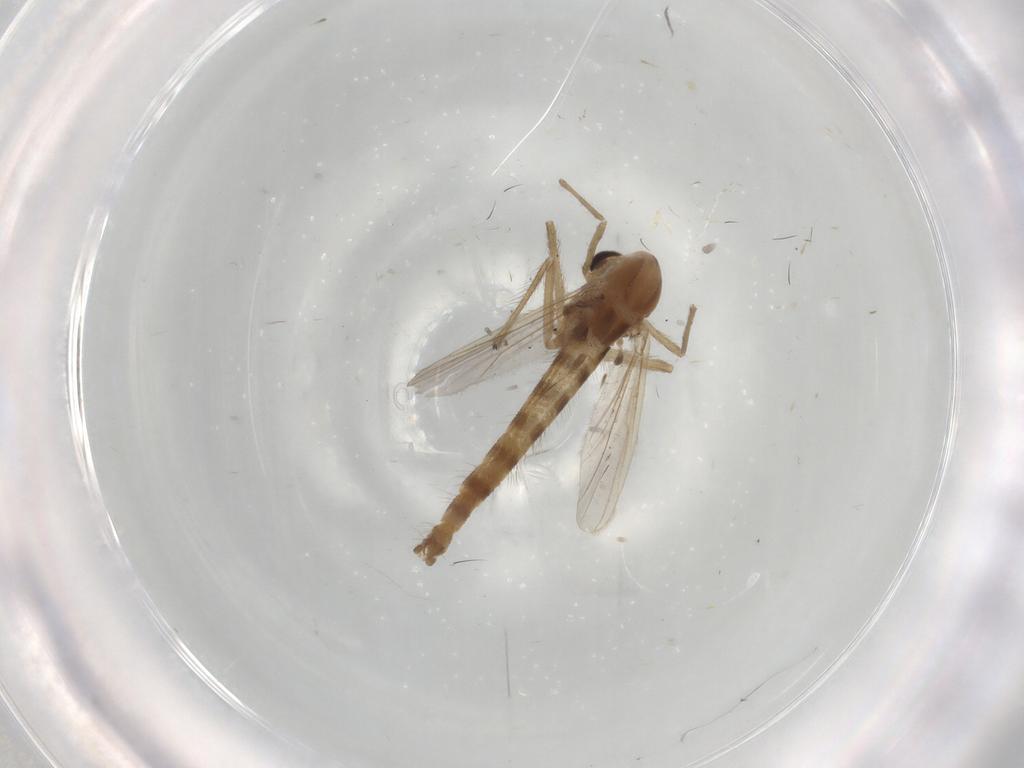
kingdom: Animalia
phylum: Arthropoda
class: Insecta
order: Diptera
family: Chironomidae
